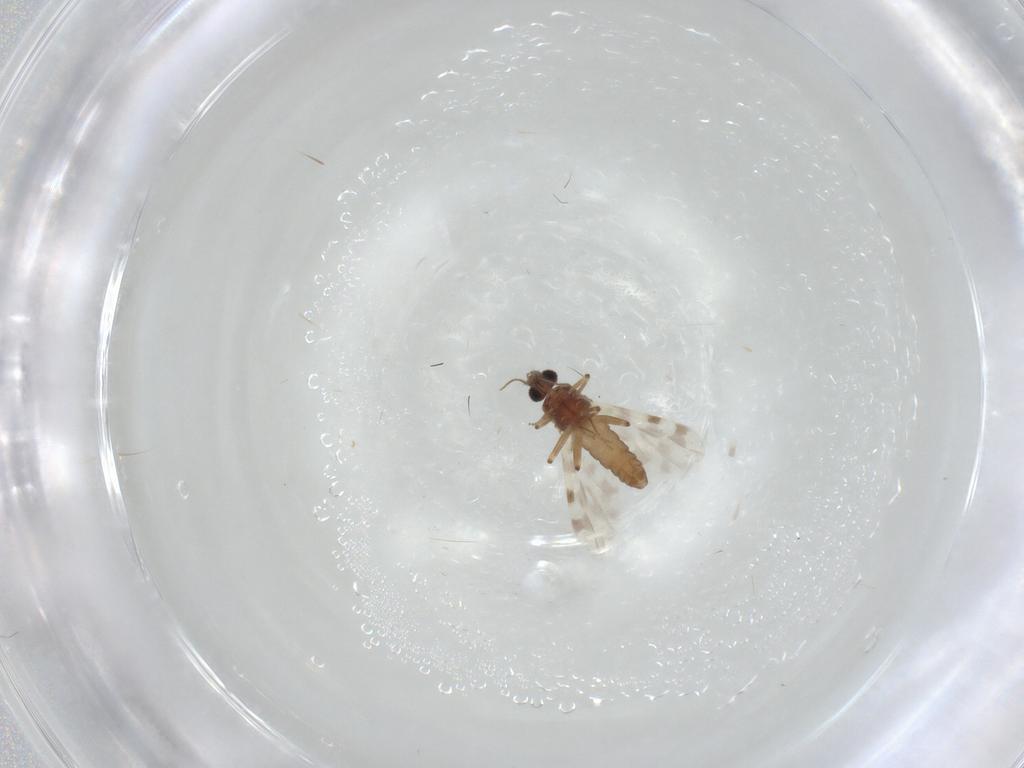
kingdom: Animalia
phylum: Arthropoda
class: Insecta
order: Diptera
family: Cecidomyiidae
